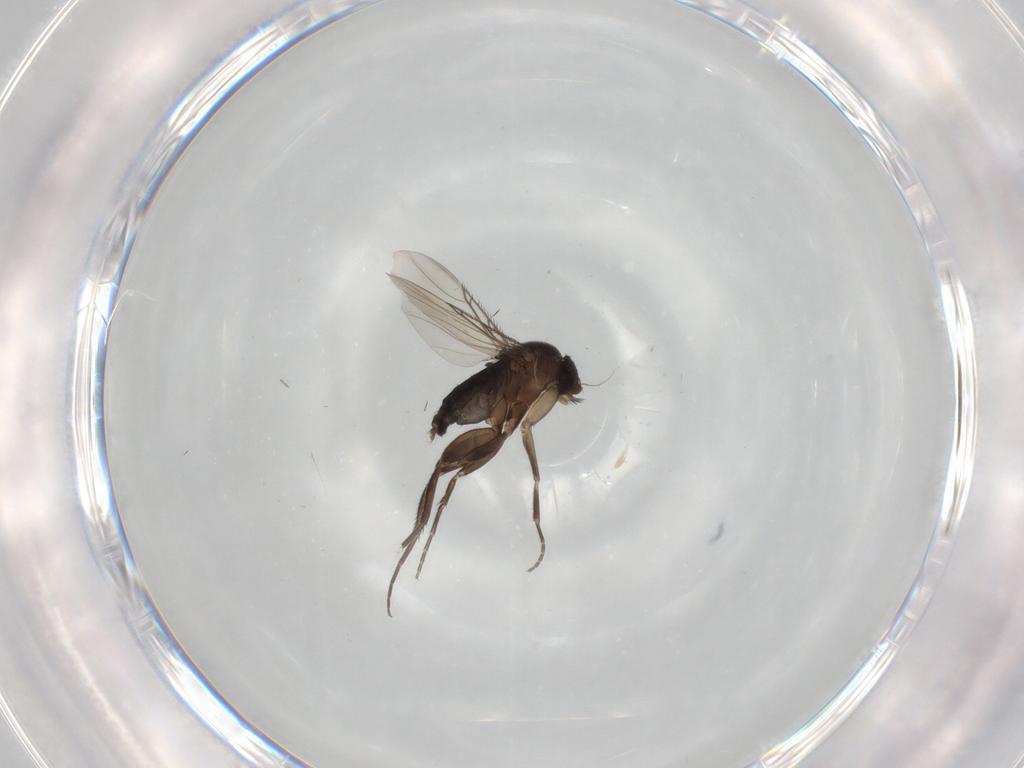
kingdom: Animalia
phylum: Arthropoda
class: Insecta
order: Diptera
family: Phoridae
